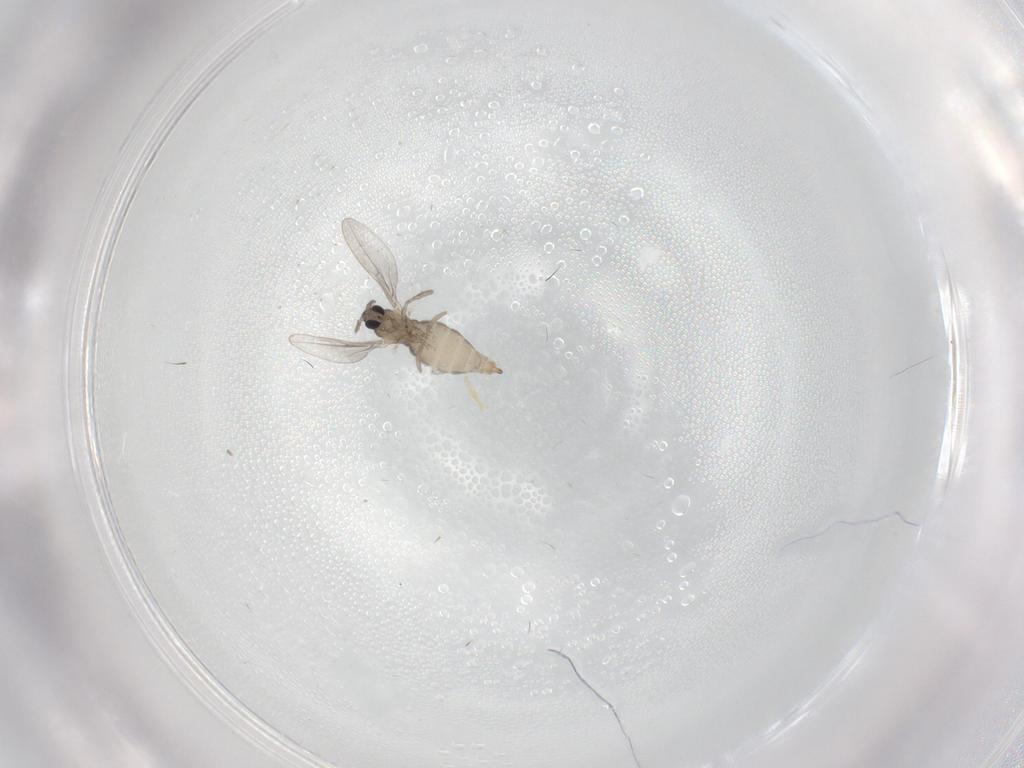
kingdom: Animalia
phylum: Arthropoda
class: Insecta
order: Diptera
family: Cecidomyiidae
